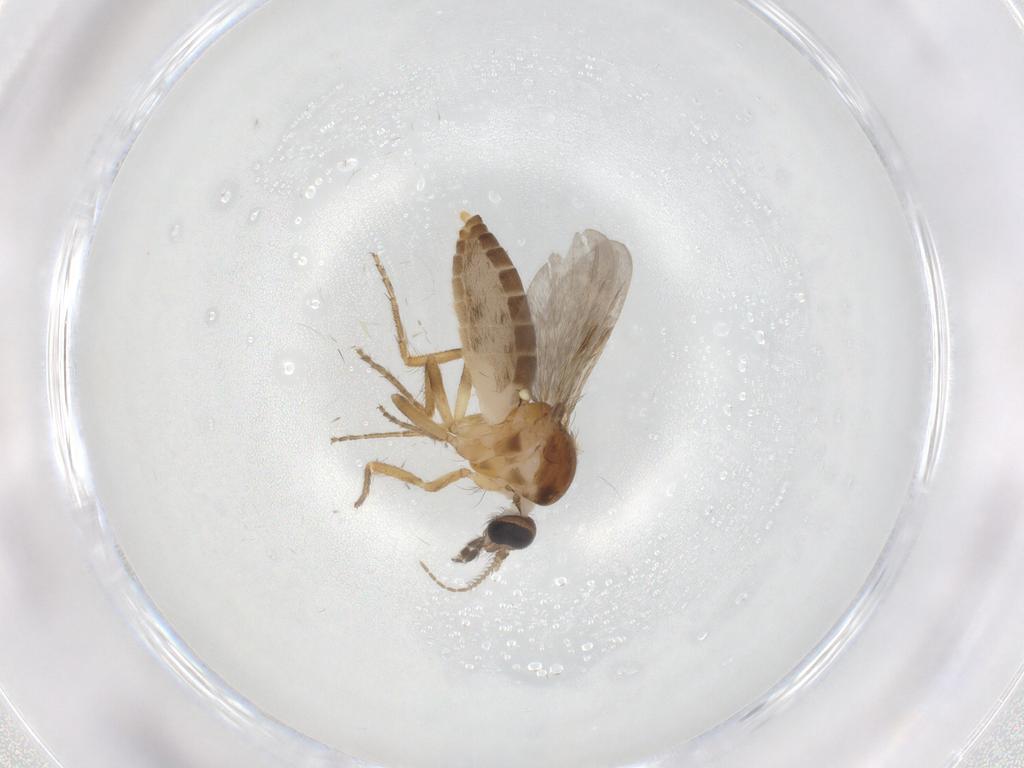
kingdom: Animalia
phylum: Arthropoda
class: Insecta
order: Diptera
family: Ceratopogonidae
